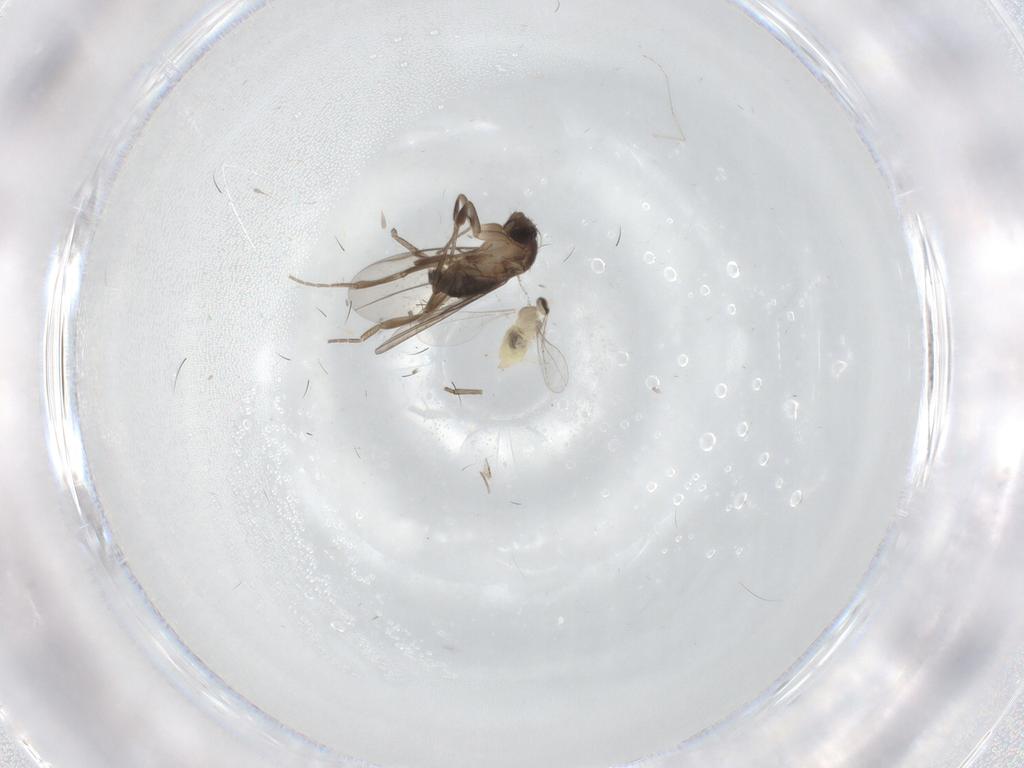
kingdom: Animalia
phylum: Arthropoda
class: Insecta
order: Diptera
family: Cecidomyiidae
